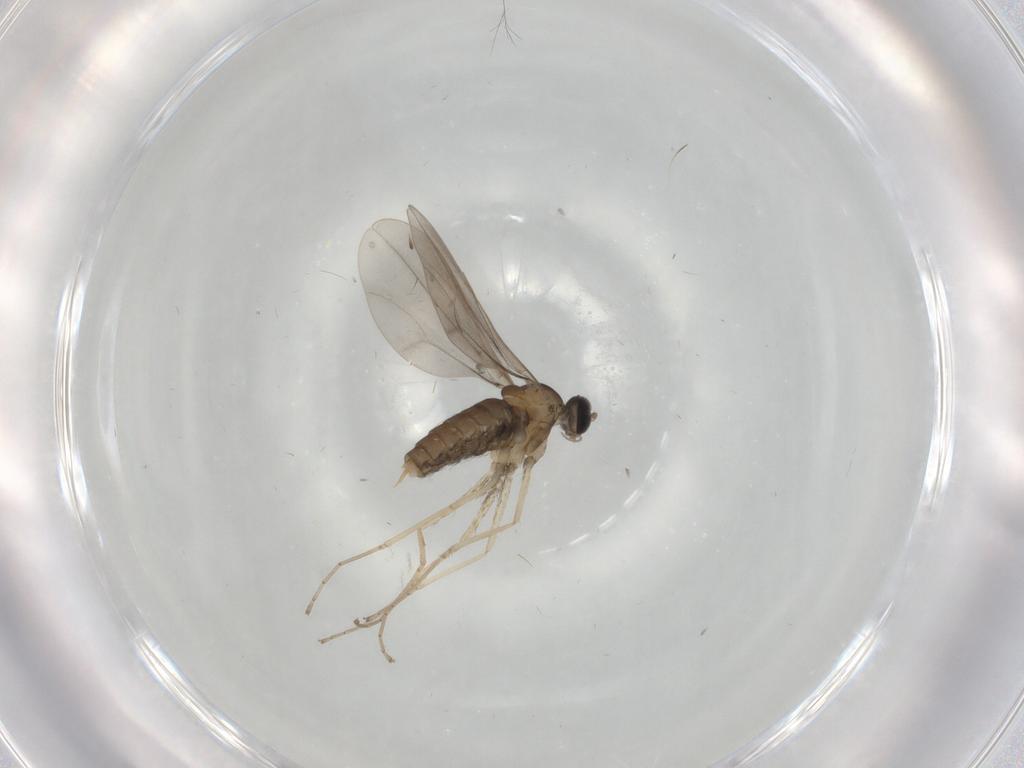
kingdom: Animalia
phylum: Arthropoda
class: Insecta
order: Diptera
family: Cecidomyiidae
